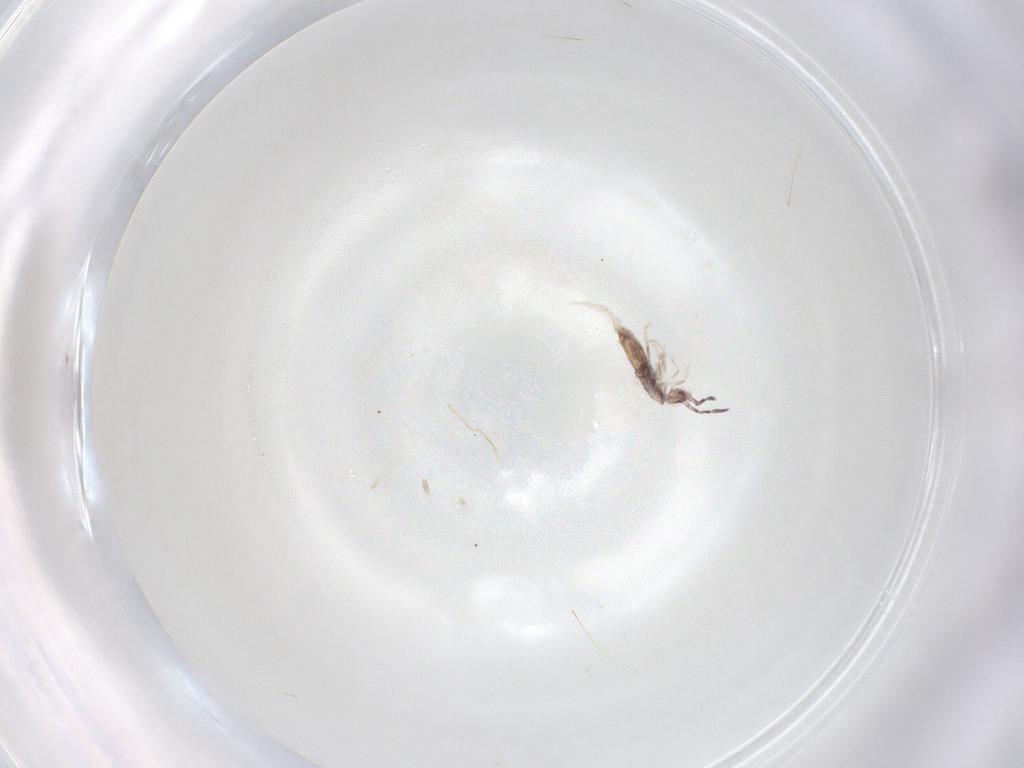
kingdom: Animalia
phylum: Arthropoda
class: Collembola
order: Poduromorpha
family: Hypogastruridae
